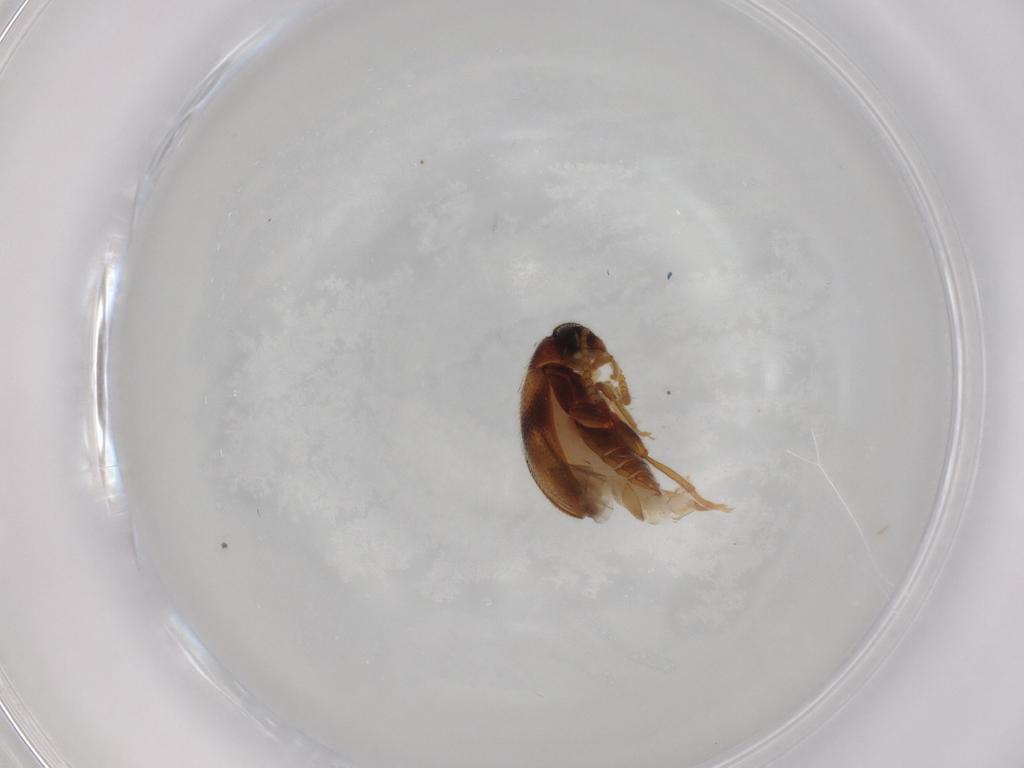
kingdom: Animalia
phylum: Arthropoda
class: Insecta
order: Coleoptera
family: Aderidae
